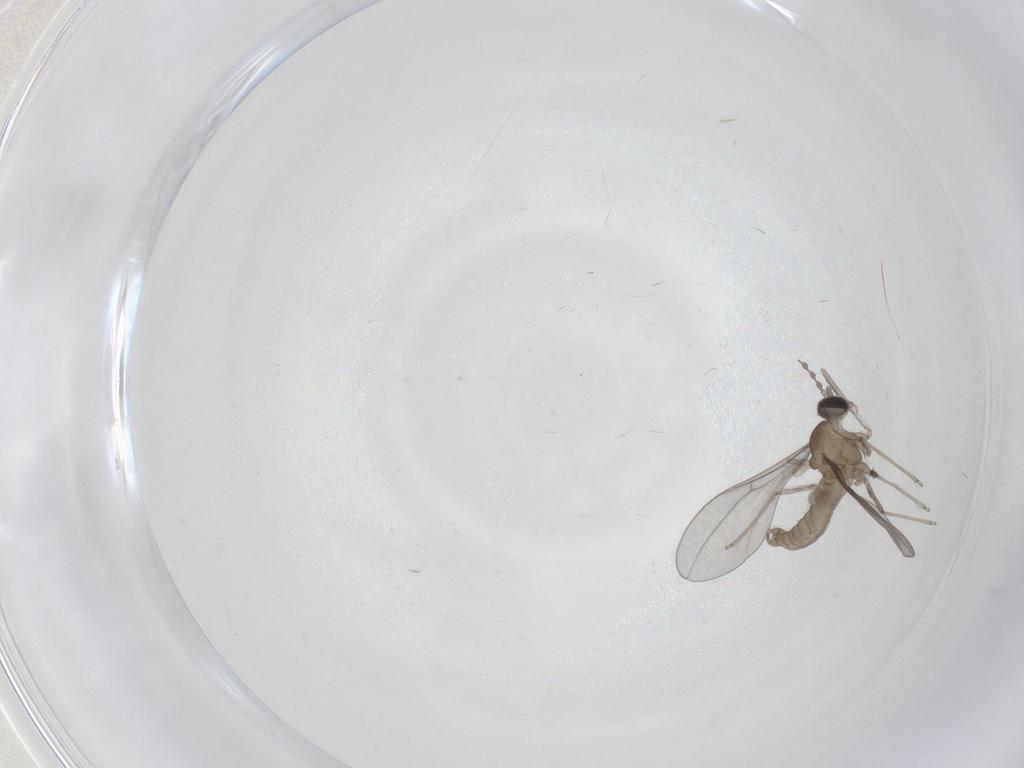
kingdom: Animalia
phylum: Arthropoda
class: Insecta
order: Diptera
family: Cecidomyiidae
